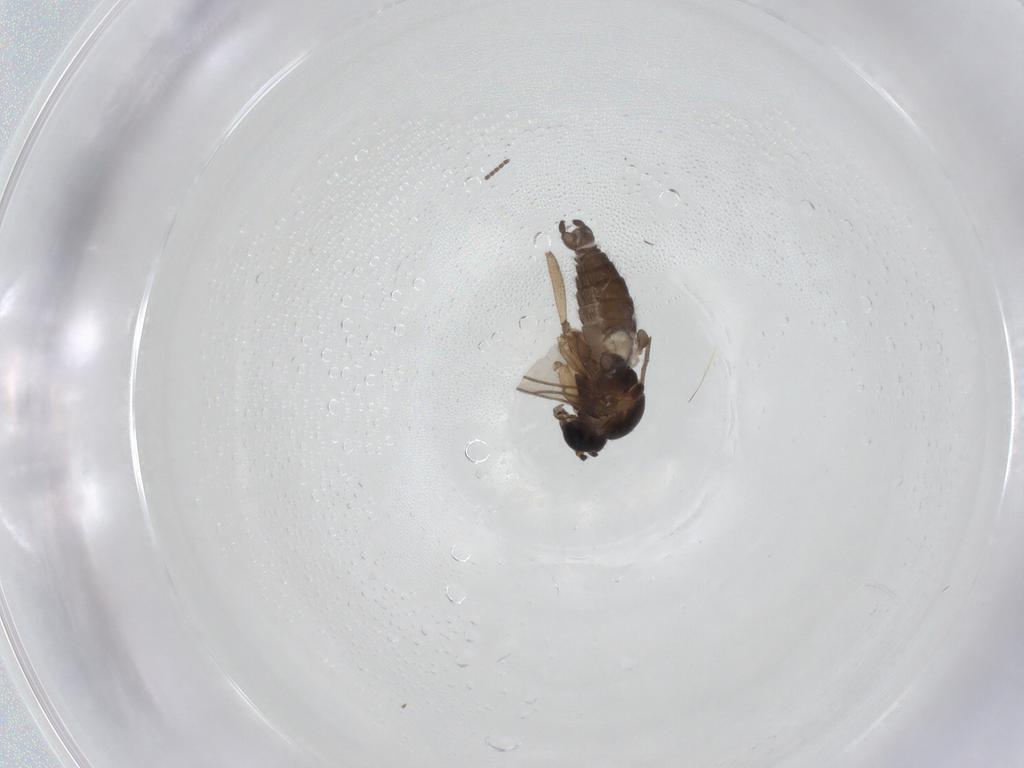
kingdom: Animalia
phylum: Arthropoda
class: Insecta
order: Diptera
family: Sciaridae
